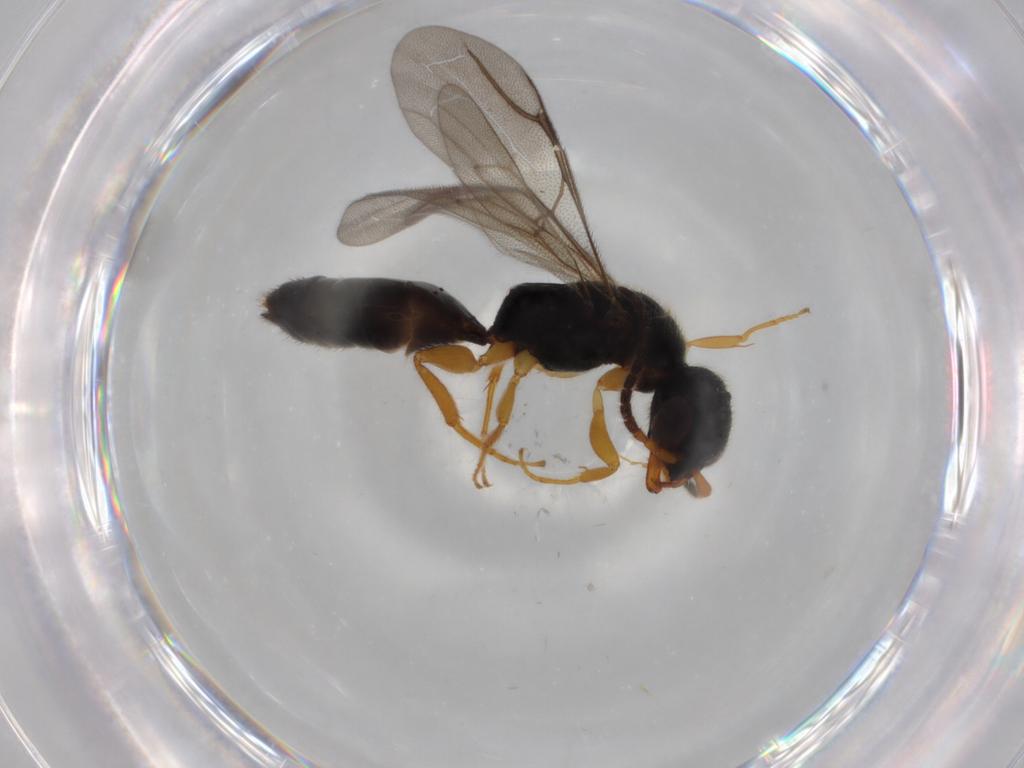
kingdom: Animalia
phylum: Arthropoda
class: Insecta
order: Hymenoptera
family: Bethylidae
